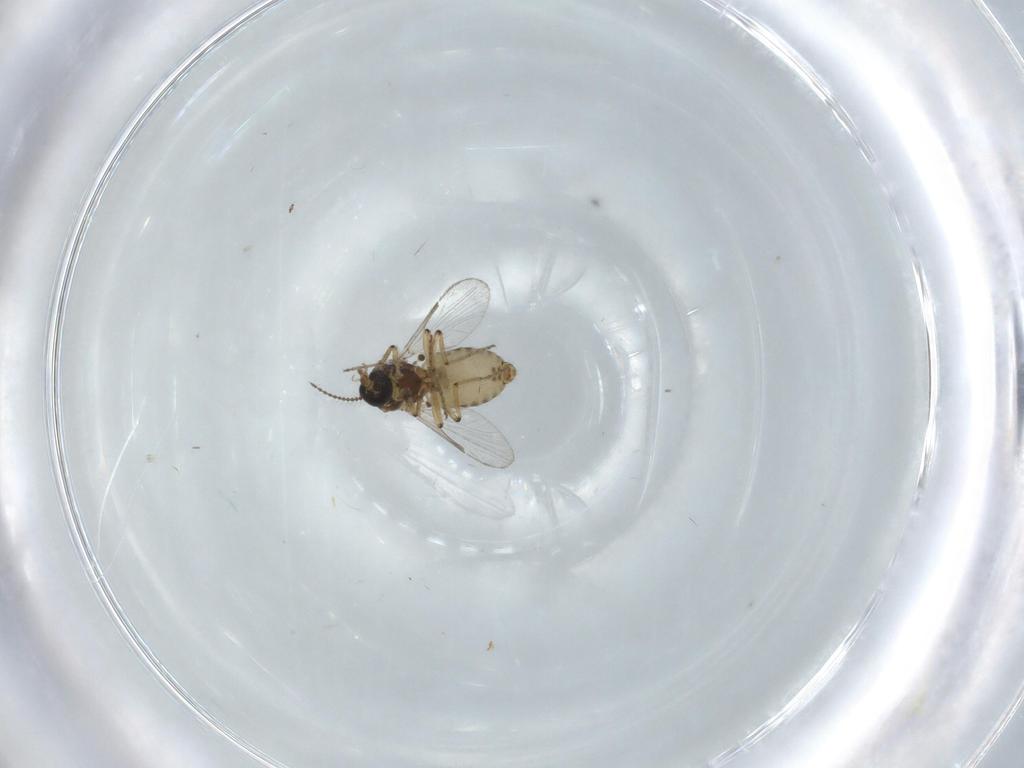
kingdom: Animalia
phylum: Arthropoda
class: Insecta
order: Diptera
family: Ceratopogonidae
